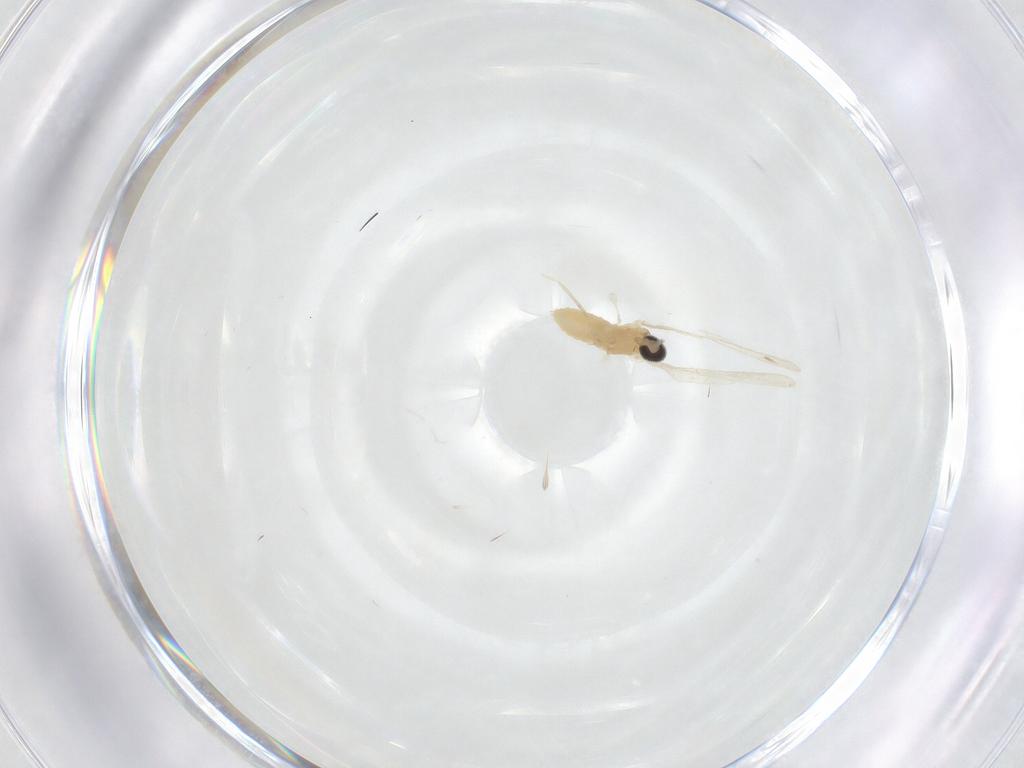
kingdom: Animalia
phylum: Arthropoda
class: Insecta
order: Diptera
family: Cecidomyiidae
